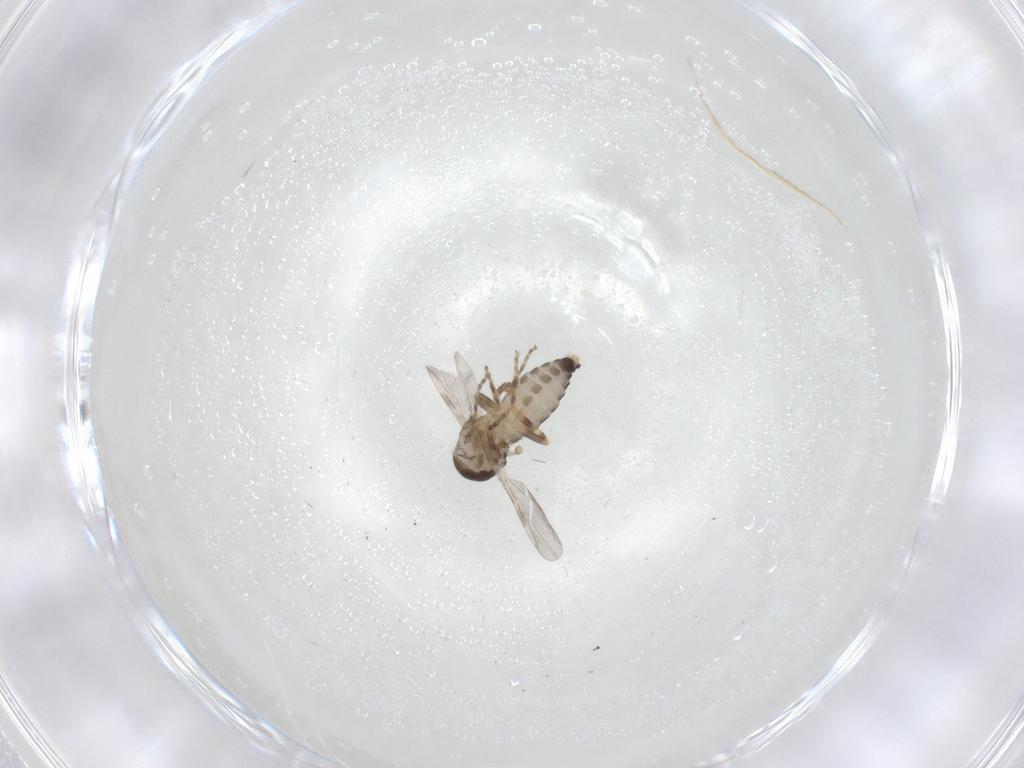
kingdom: Animalia
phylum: Arthropoda
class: Insecta
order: Diptera
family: Ceratopogonidae
